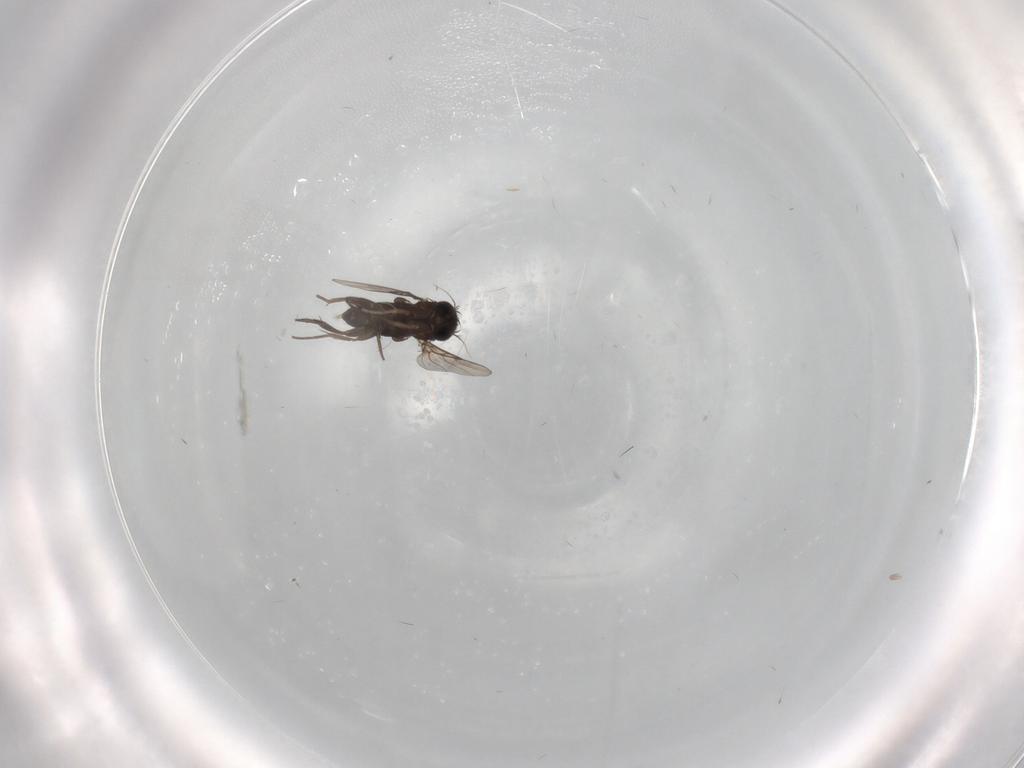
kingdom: Animalia
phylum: Arthropoda
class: Insecta
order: Diptera
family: Phoridae
